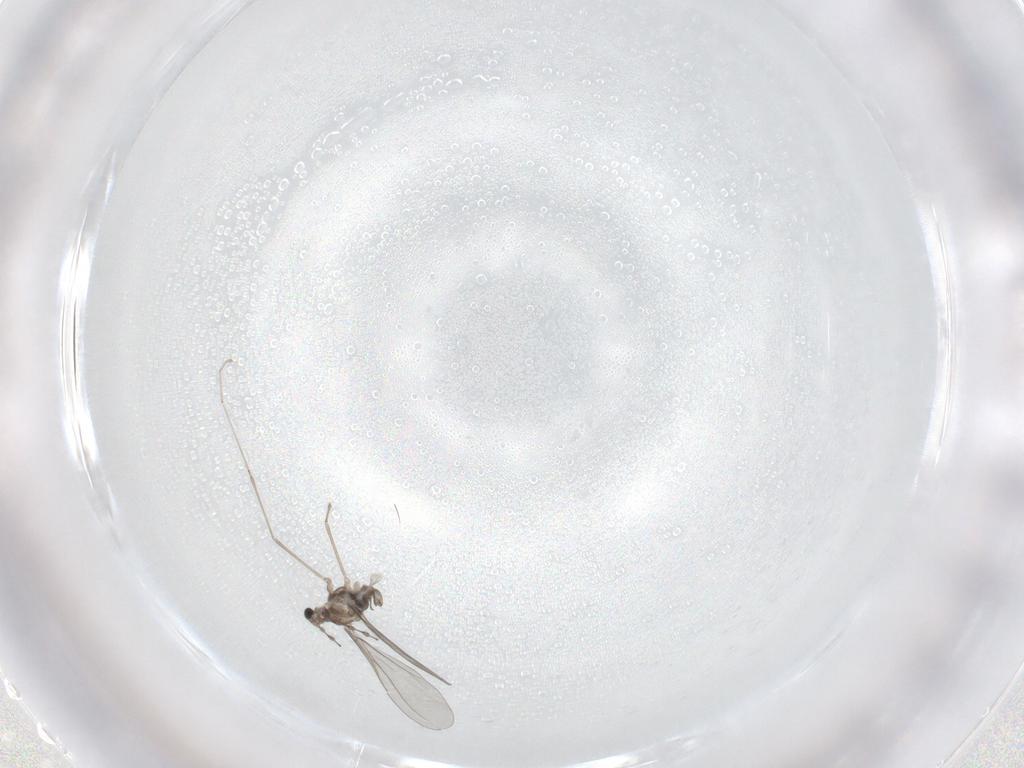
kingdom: Animalia
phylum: Arthropoda
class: Insecta
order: Diptera
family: Cecidomyiidae
